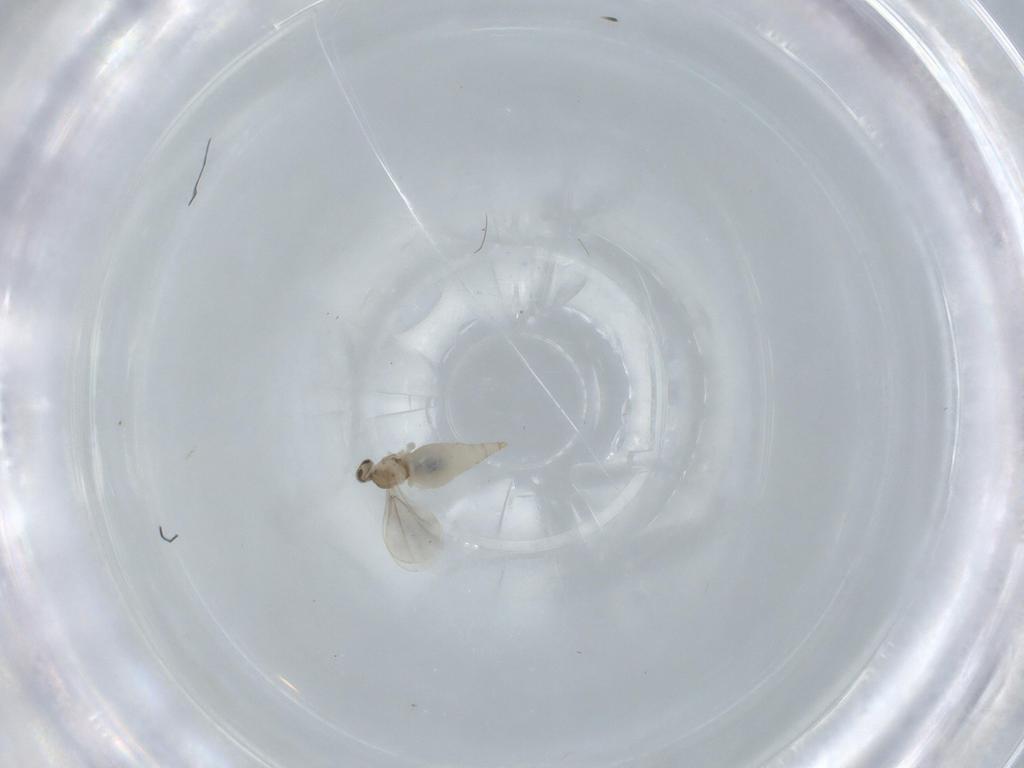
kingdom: Animalia
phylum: Arthropoda
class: Insecta
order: Diptera
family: Cecidomyiidae
